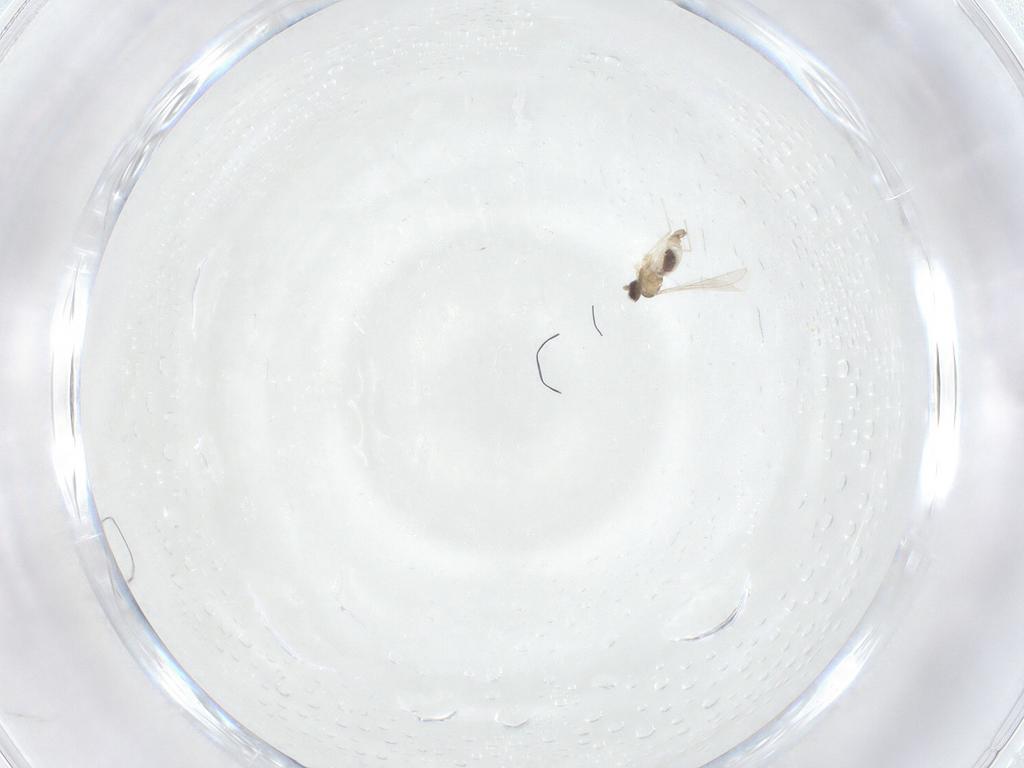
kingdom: Animalia
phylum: Arthropoda
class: Insecta
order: Diptera
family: Cecidomyiidae
